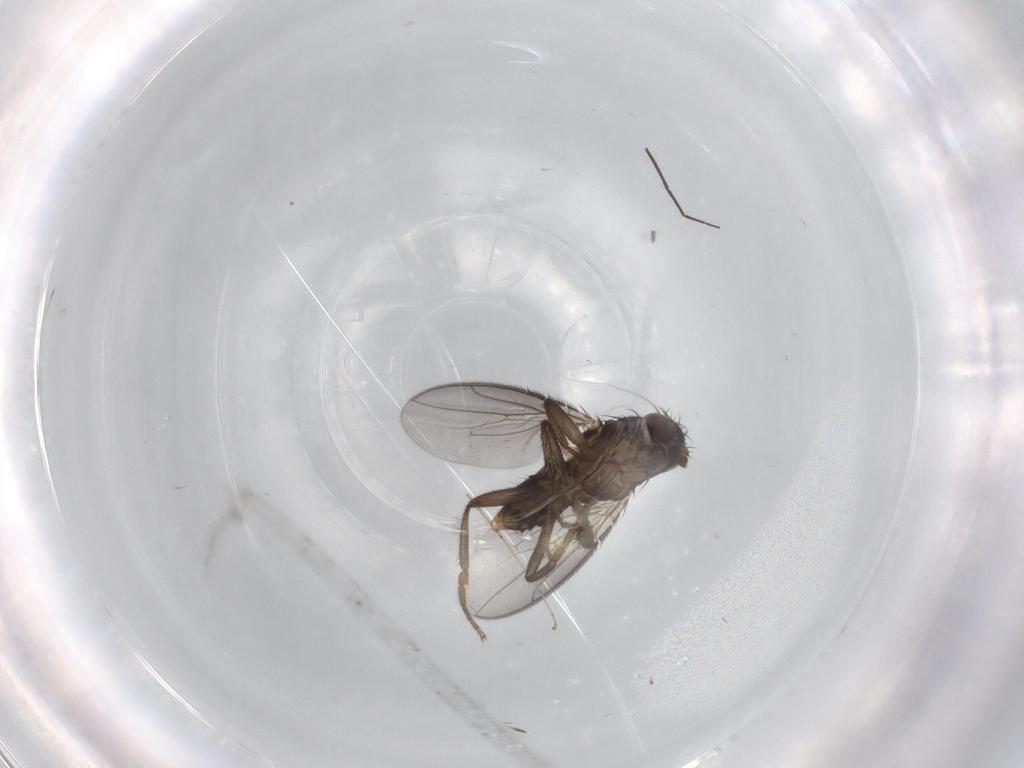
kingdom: Animalia
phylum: Arthropoda
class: Insecta
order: Diptera
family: Sphaeroceridae
